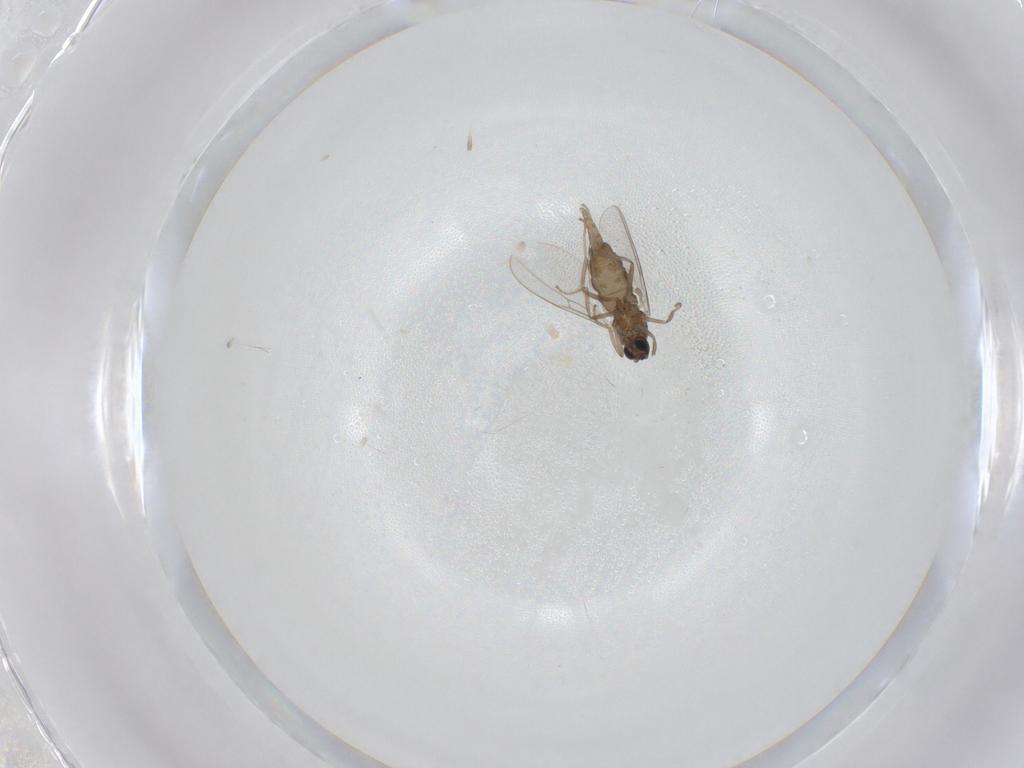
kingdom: Animalia
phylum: Arthropoda
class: Insecta
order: Diptera
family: Cecidomyiidae
